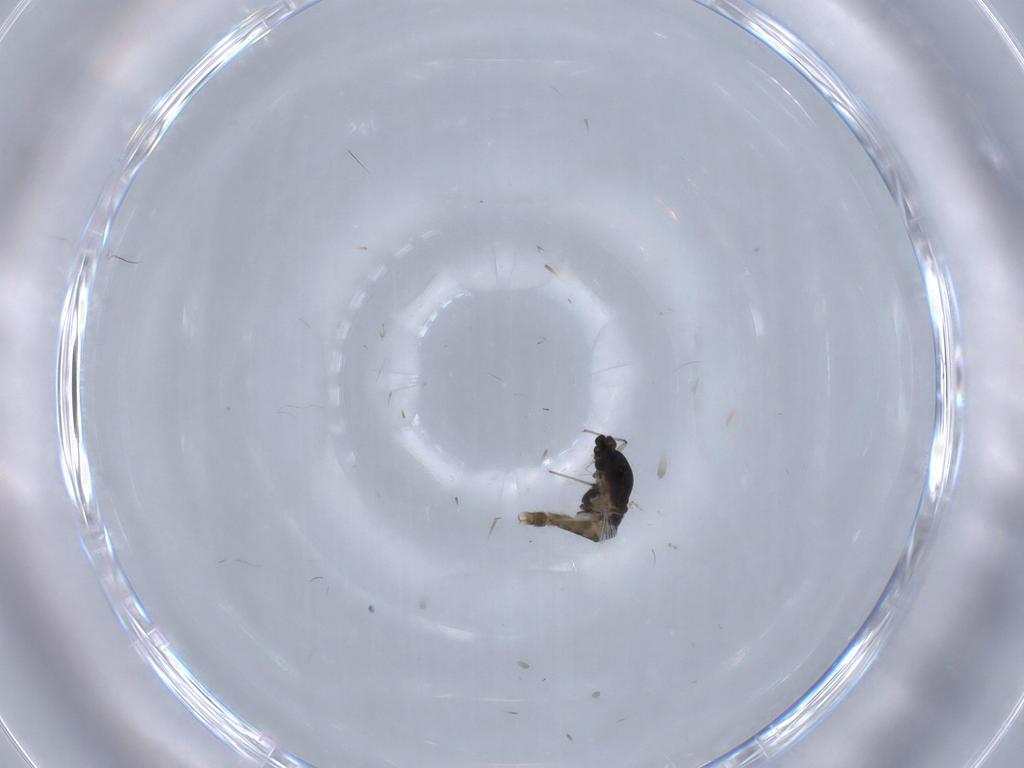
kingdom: Animalia
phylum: Arthropoda
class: Insecta
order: Diptera
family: Chironomidae
